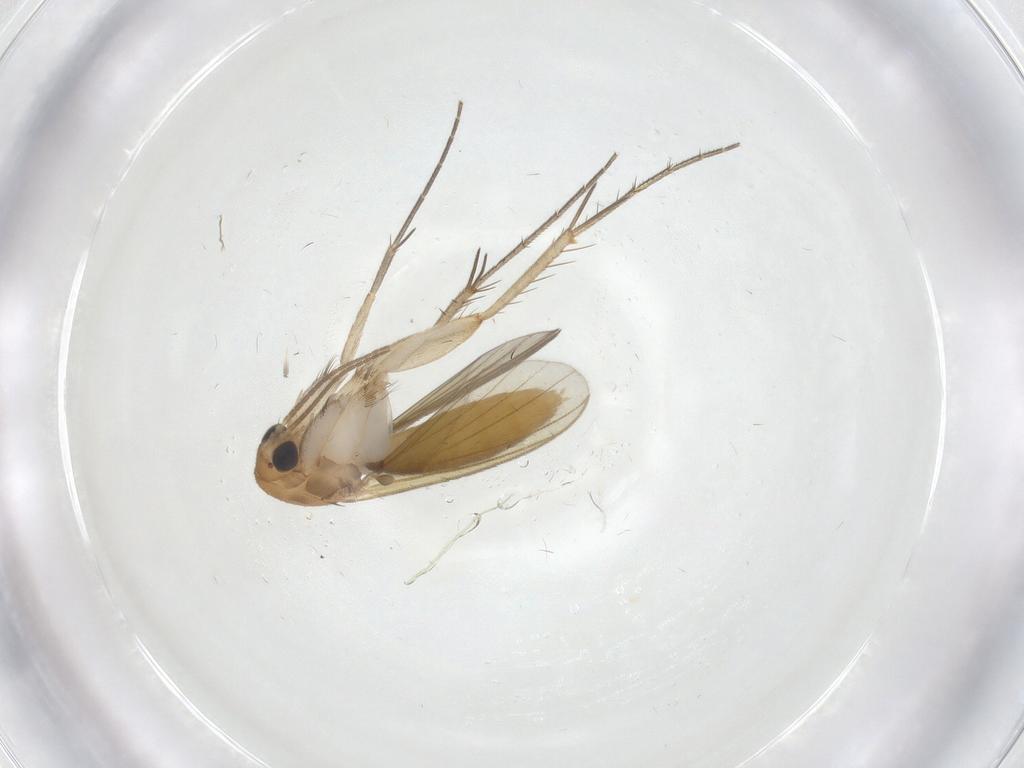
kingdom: Animalia
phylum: Arthropoda
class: Insecta
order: Diptera
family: Mycetophilidae
